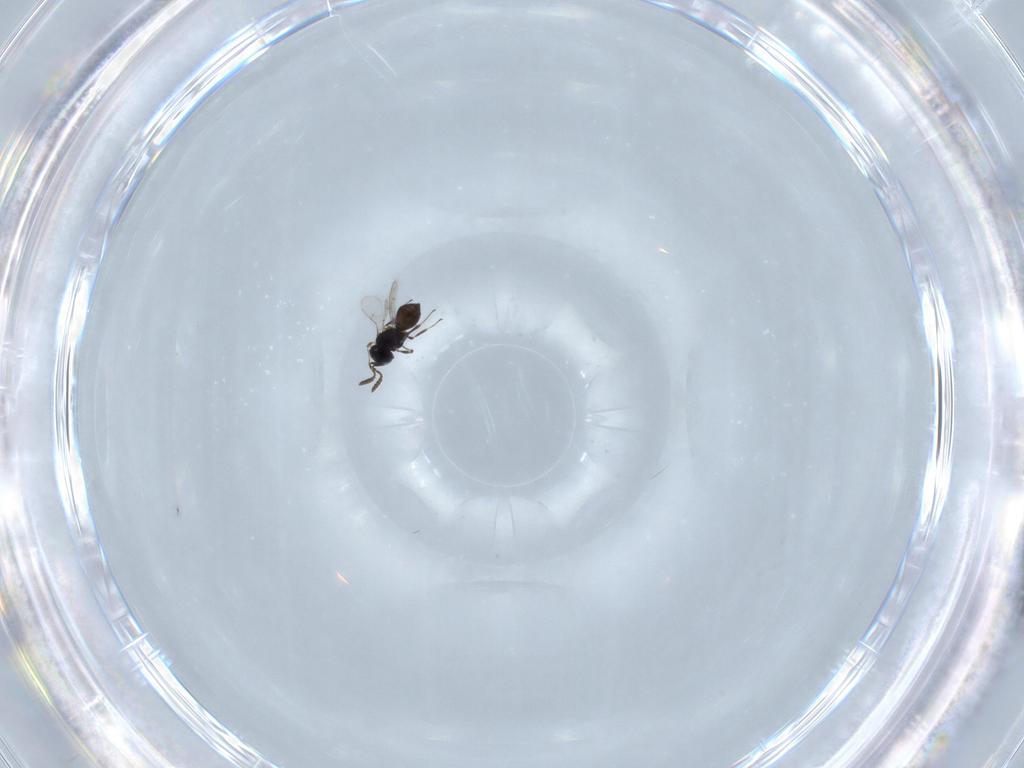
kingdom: Animalia
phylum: Arthropoda
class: Insecta
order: Hymenoptera
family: Scelionidae
